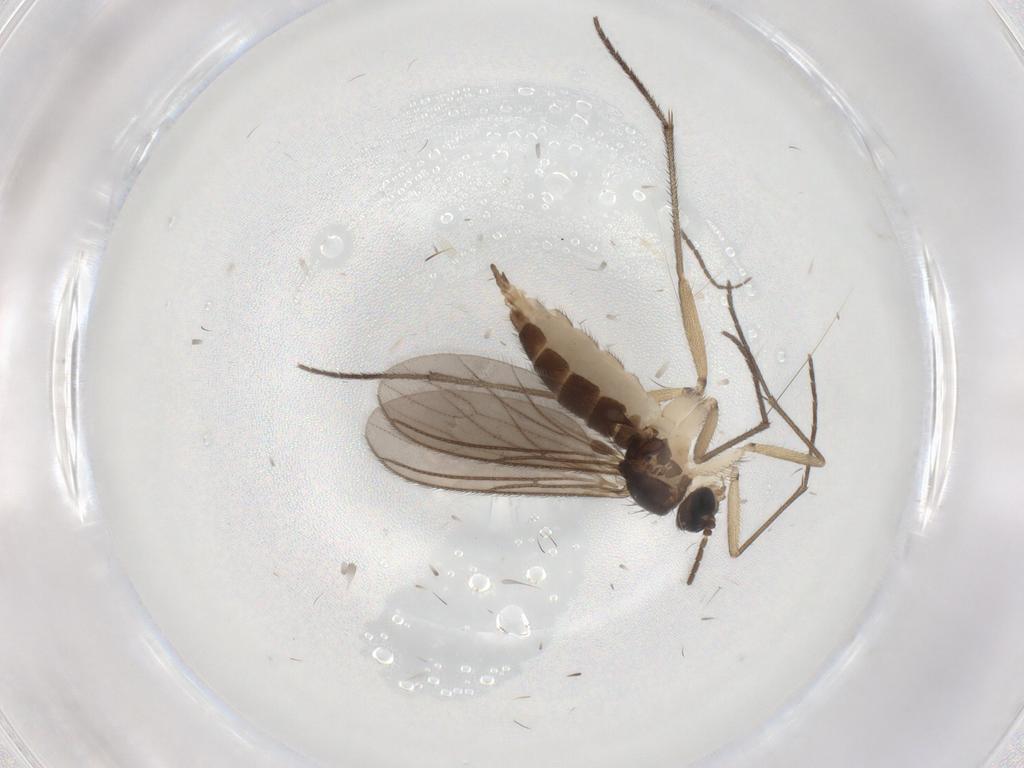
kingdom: Animalia
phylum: Arthropoda
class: Insecta
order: Diptera
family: Sciaridae
